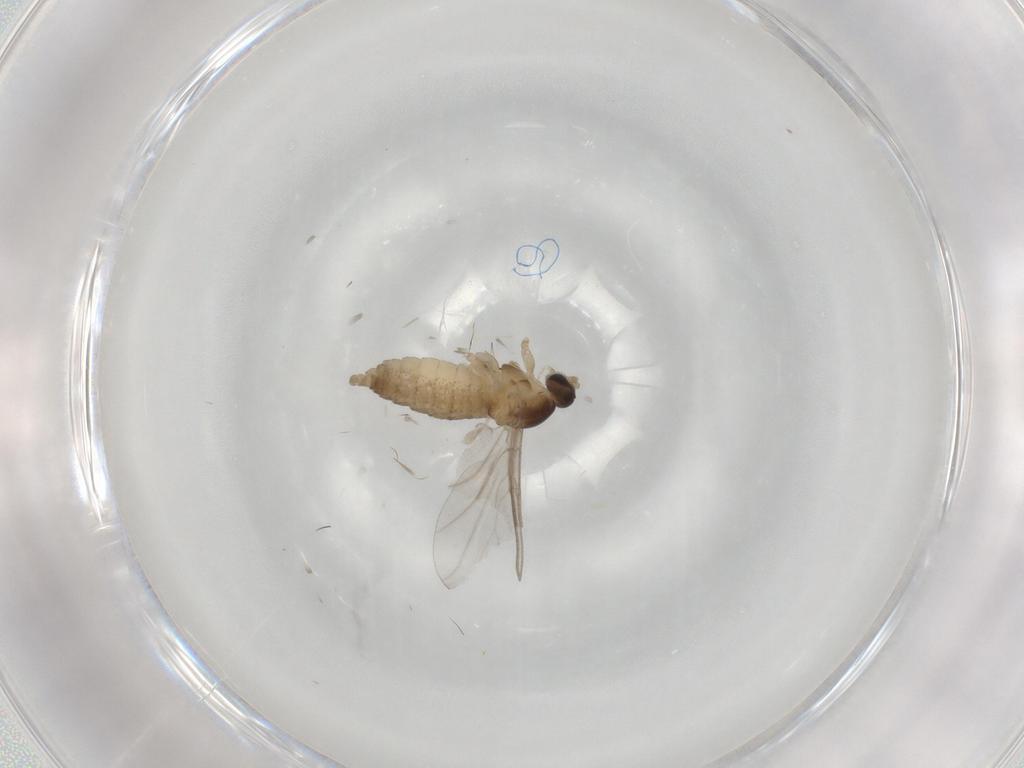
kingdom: Animalia
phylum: Arthropoda
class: Insecta
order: Diptera
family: Cecidomyiidae
